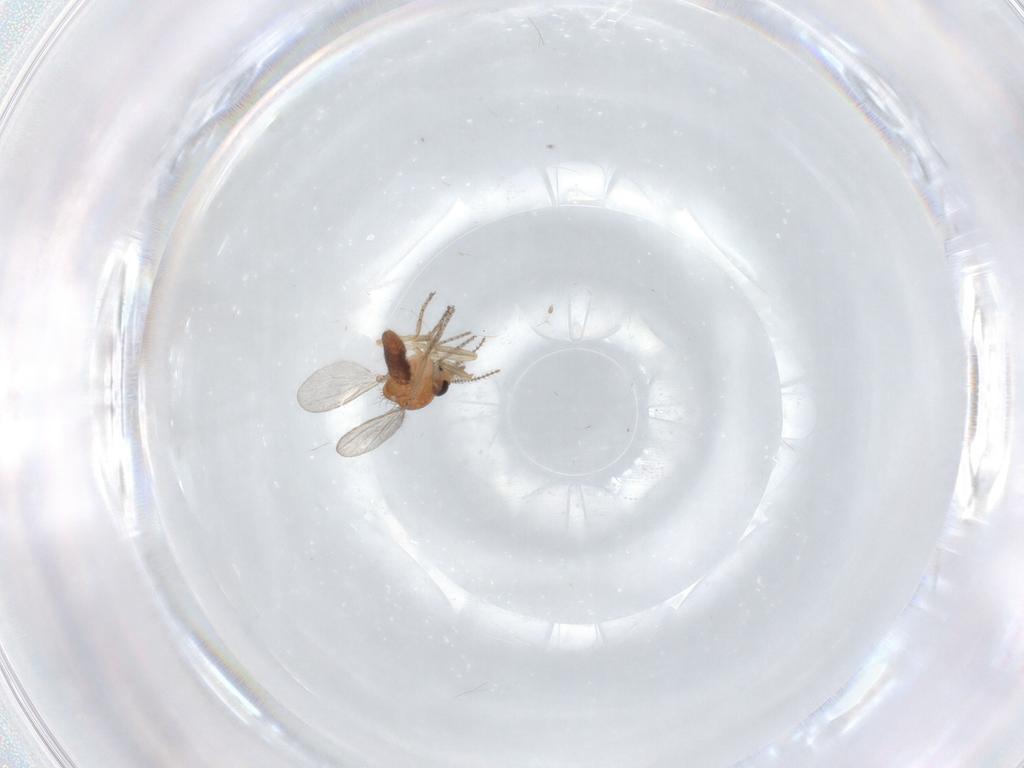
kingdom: Animalia
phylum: Arthropoda
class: Insecta
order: Diptera
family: Ceratopogonidae
